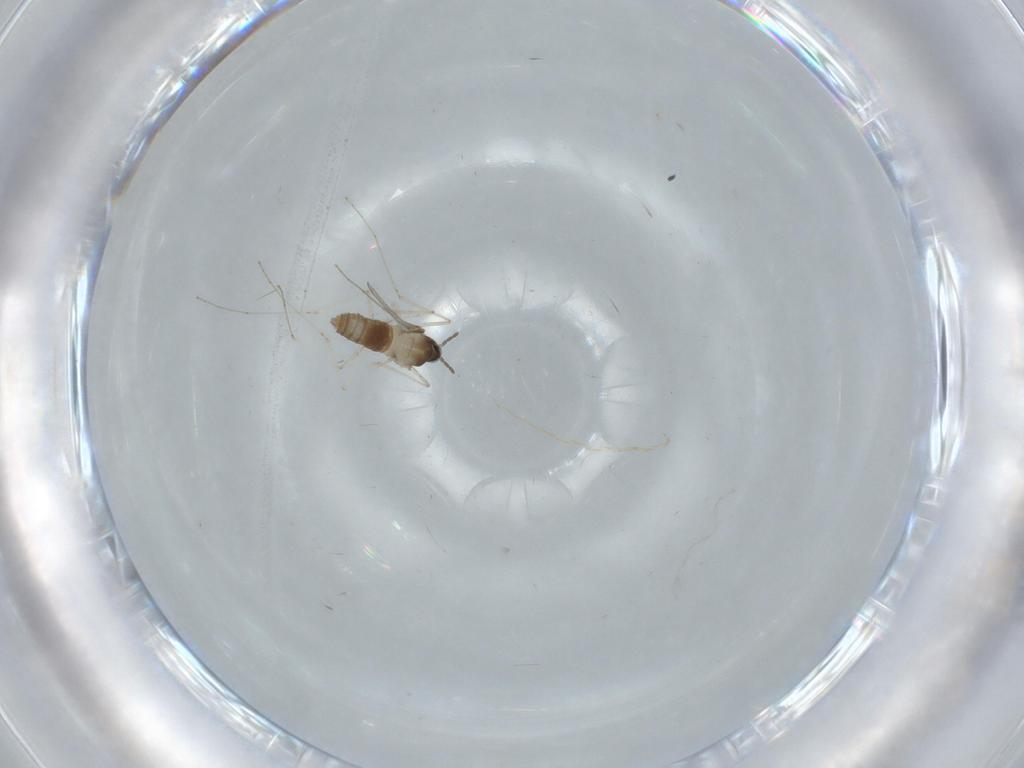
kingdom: Animalia
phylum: Arthropoda
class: Insecta
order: Diptera
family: Cecidomyiidae
